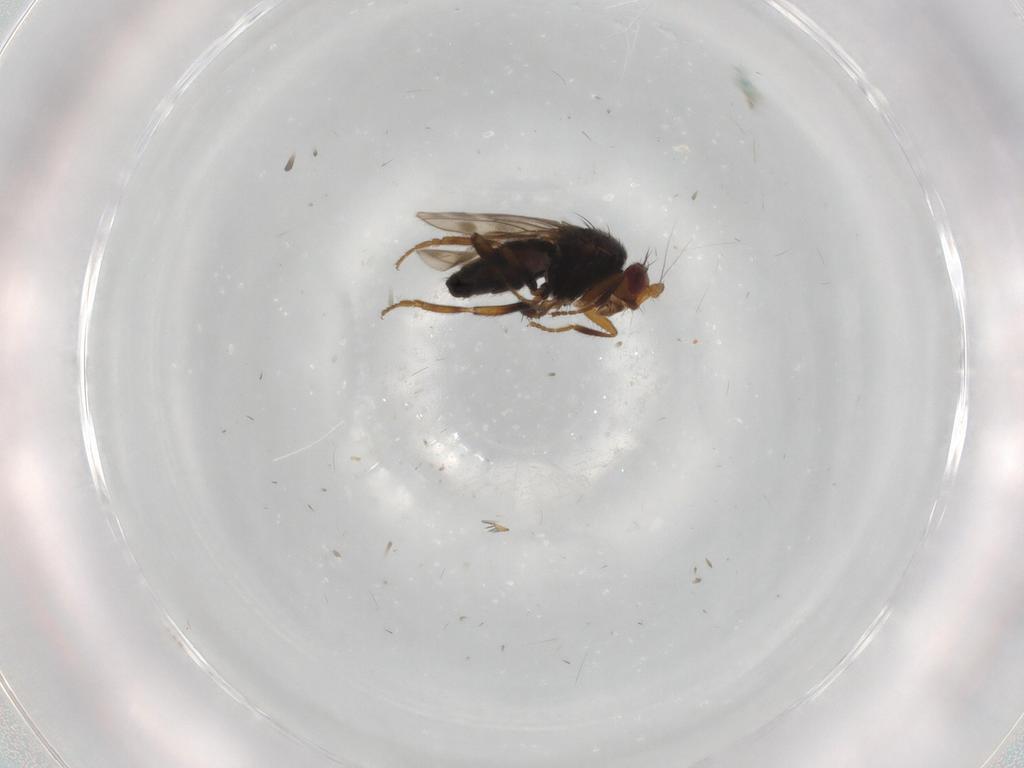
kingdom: Animalia
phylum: Arthropoda
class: Insecta
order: Diptera
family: Sphaeroceridae
